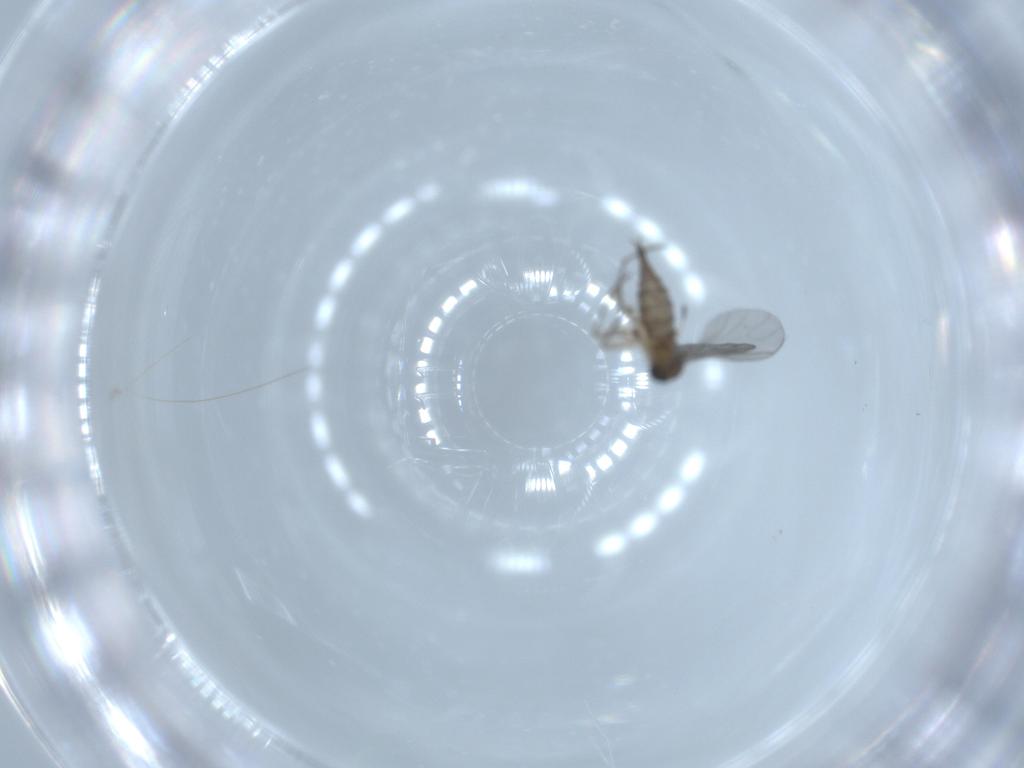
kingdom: Animalia
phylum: Arthropoda
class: Insecta
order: Diptera
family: Sciaridae
